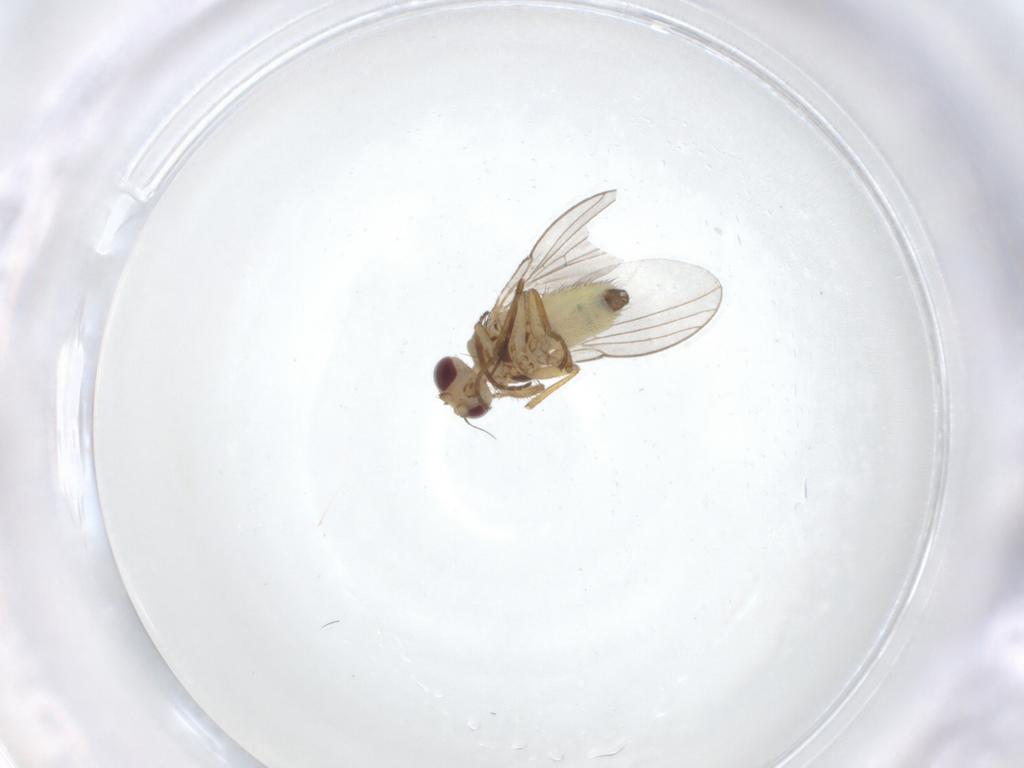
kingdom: Animalia
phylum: Arthropoda
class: Insecta
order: Diptera
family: Agromyzidae
